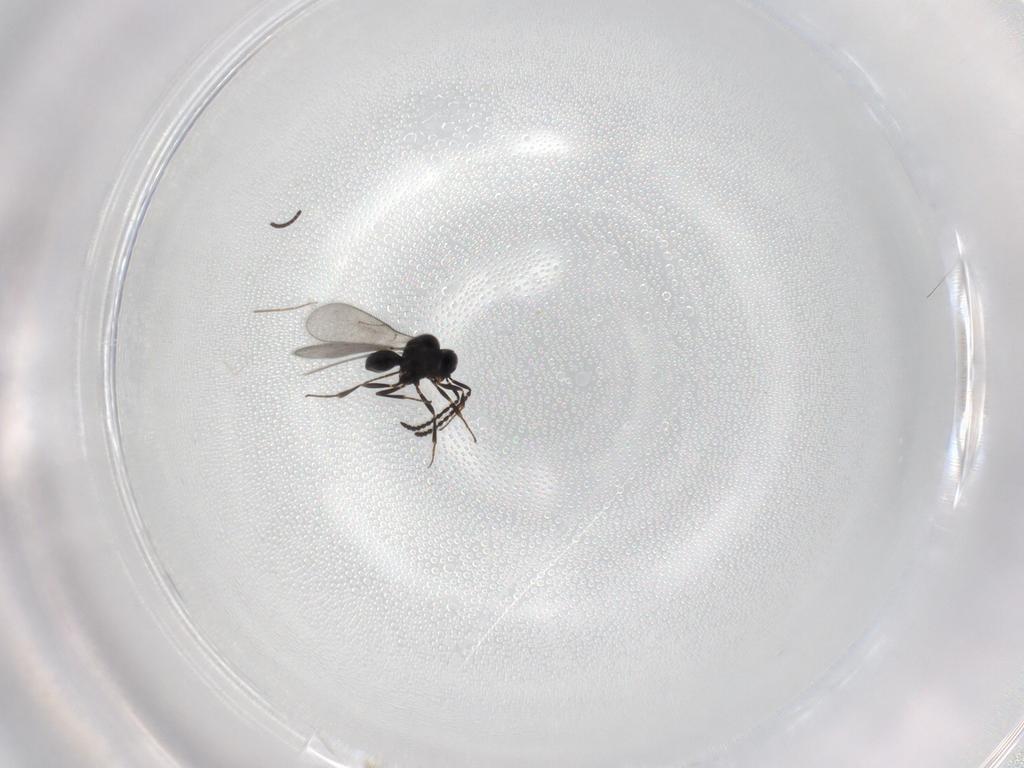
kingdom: Animalia
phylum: Arthropoda
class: Insecta
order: Hymenoptera
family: Scelionidae
